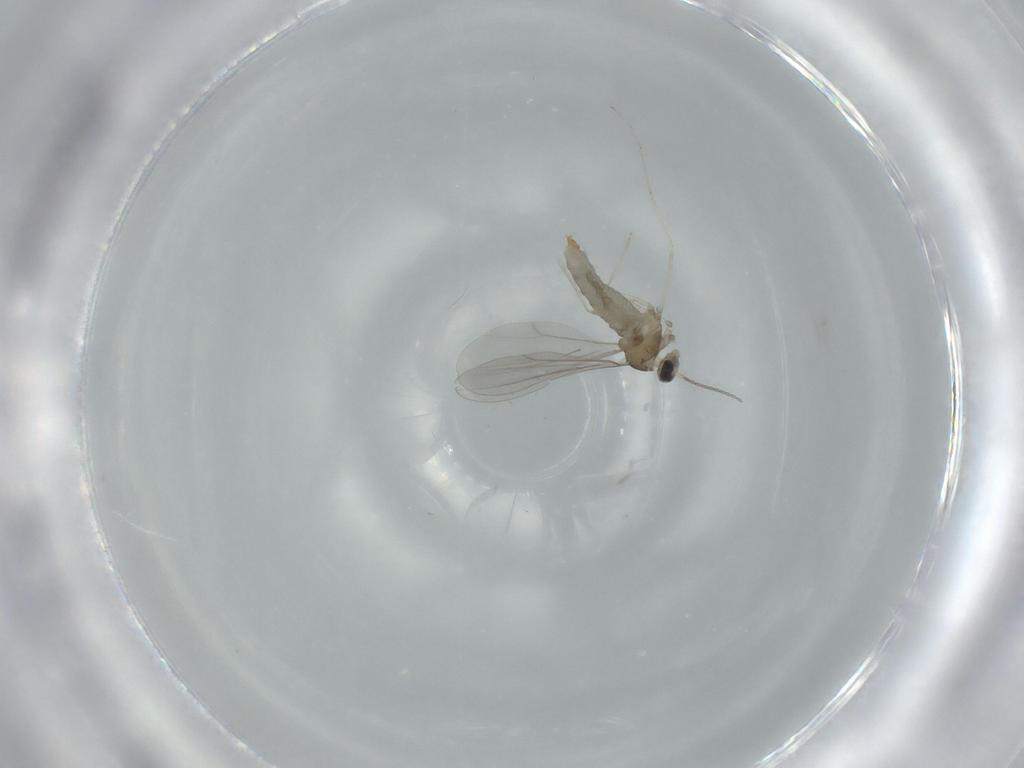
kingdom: Animalia
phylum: Arthropoda
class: Insecta
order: Diptera
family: Cecidomyiidae
